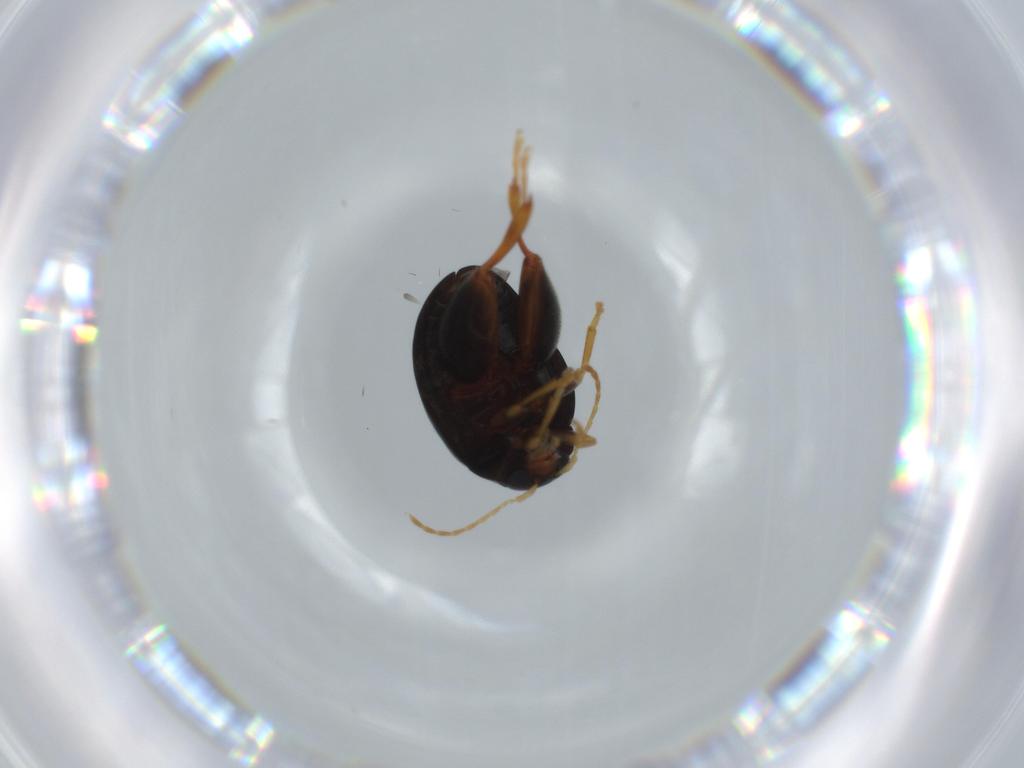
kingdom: Animalia
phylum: Arthropoda
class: Insecta
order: Coleoptera
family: Chrysomelidae
